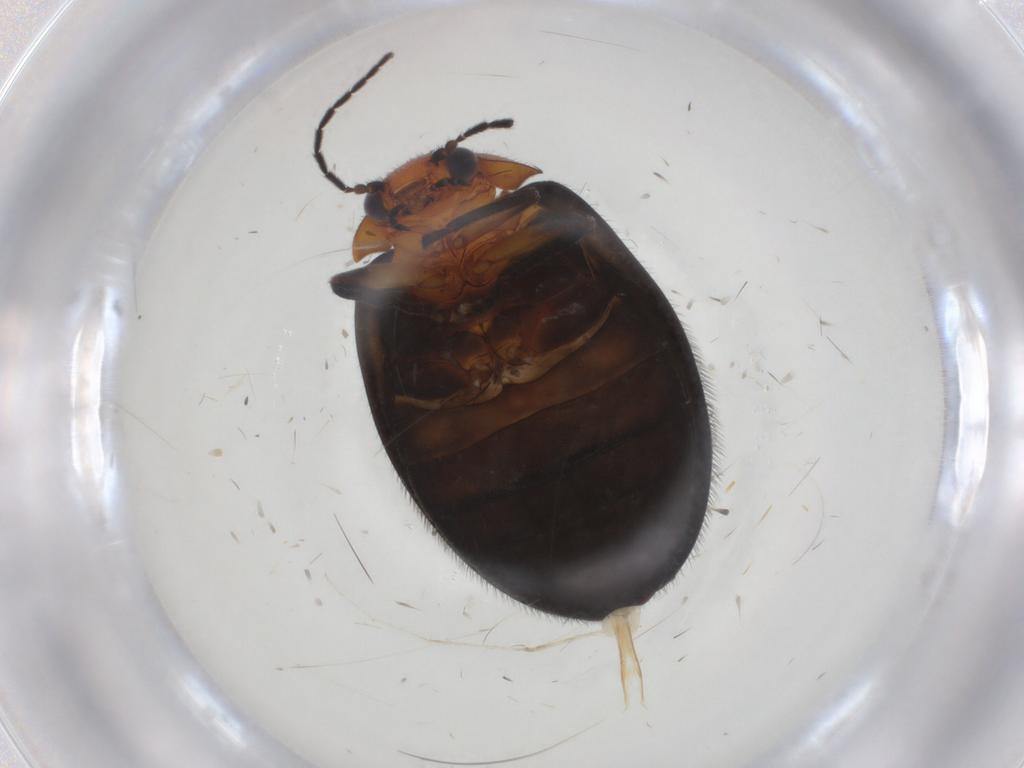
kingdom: Animalia
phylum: Arthropoda
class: Insecta
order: Coleoptera
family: Scirtidae
